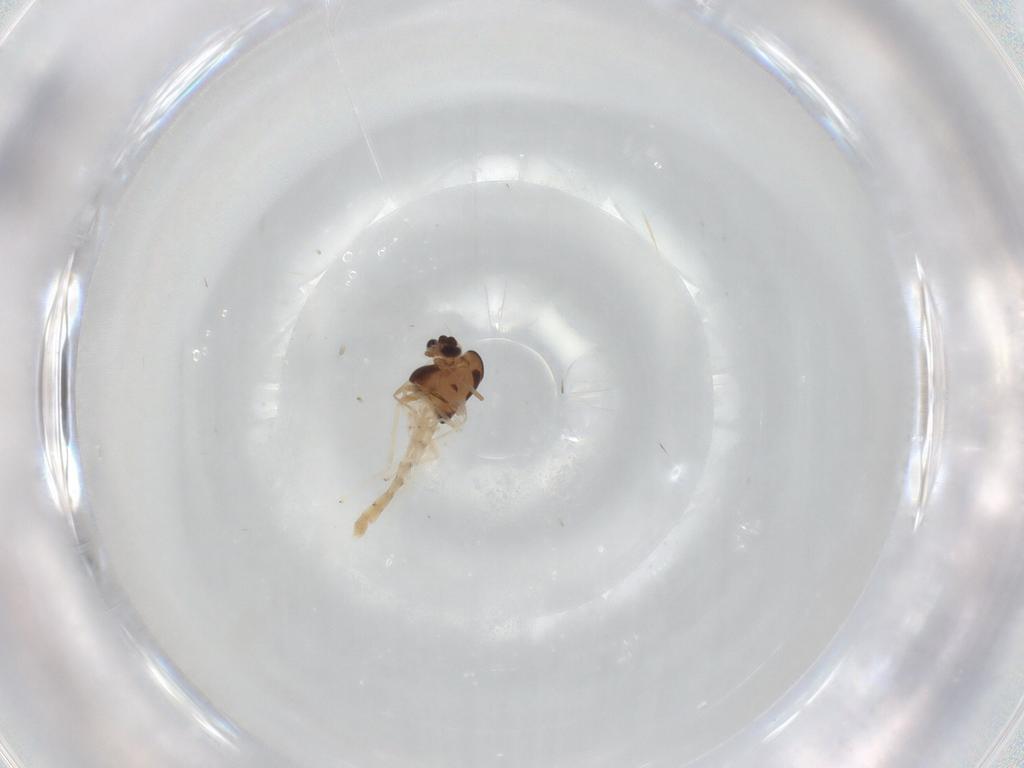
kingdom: Animalia
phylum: Arthropoda
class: Insecta
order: Diptera
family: Chironomidae
